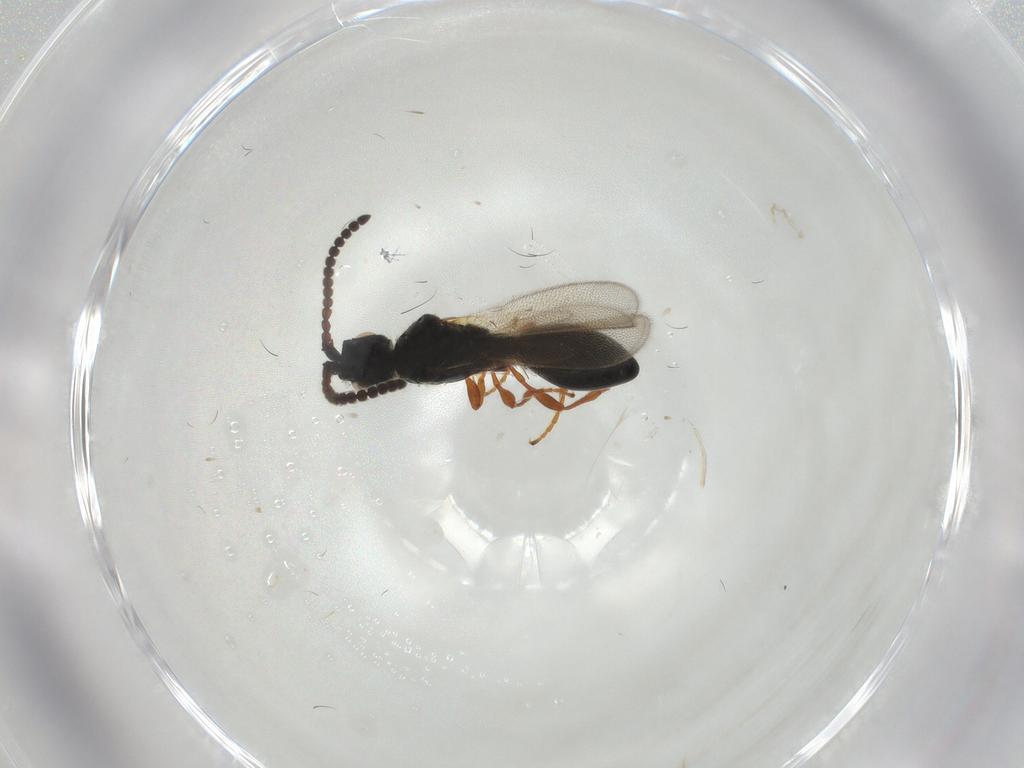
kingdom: Animalia
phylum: Arthropoda
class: Insecta
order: Hymenoptera
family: Diapriidae
